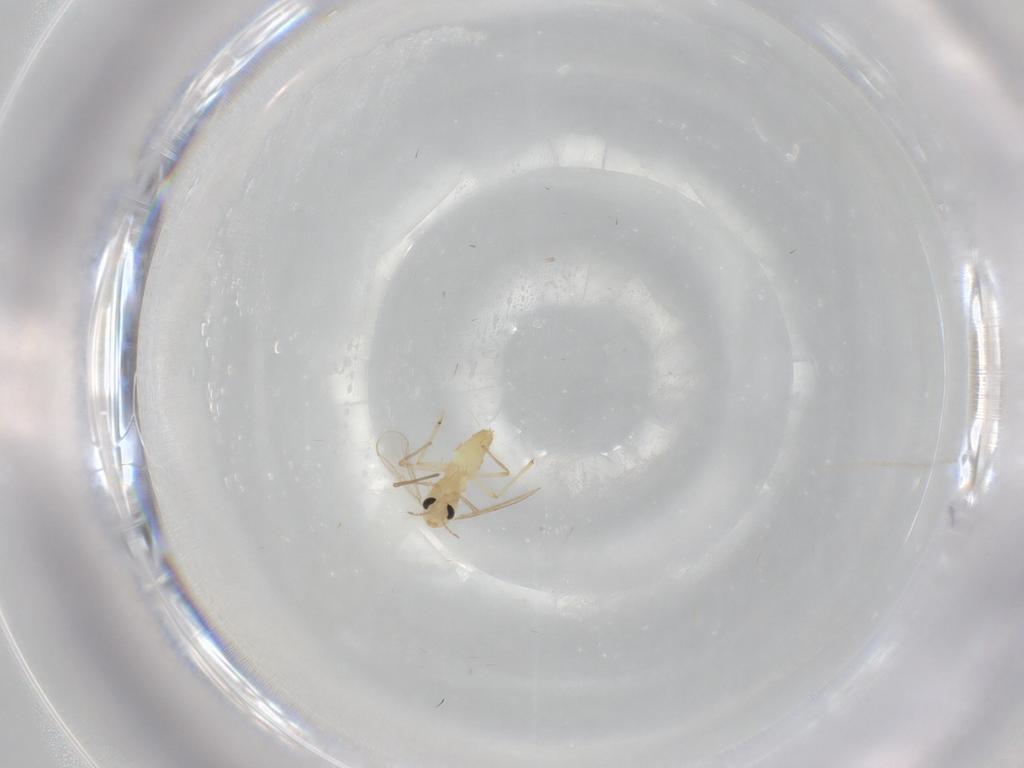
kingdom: Animalia
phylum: Arthropoda
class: Insecta
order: Diptera
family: Chironomidae
